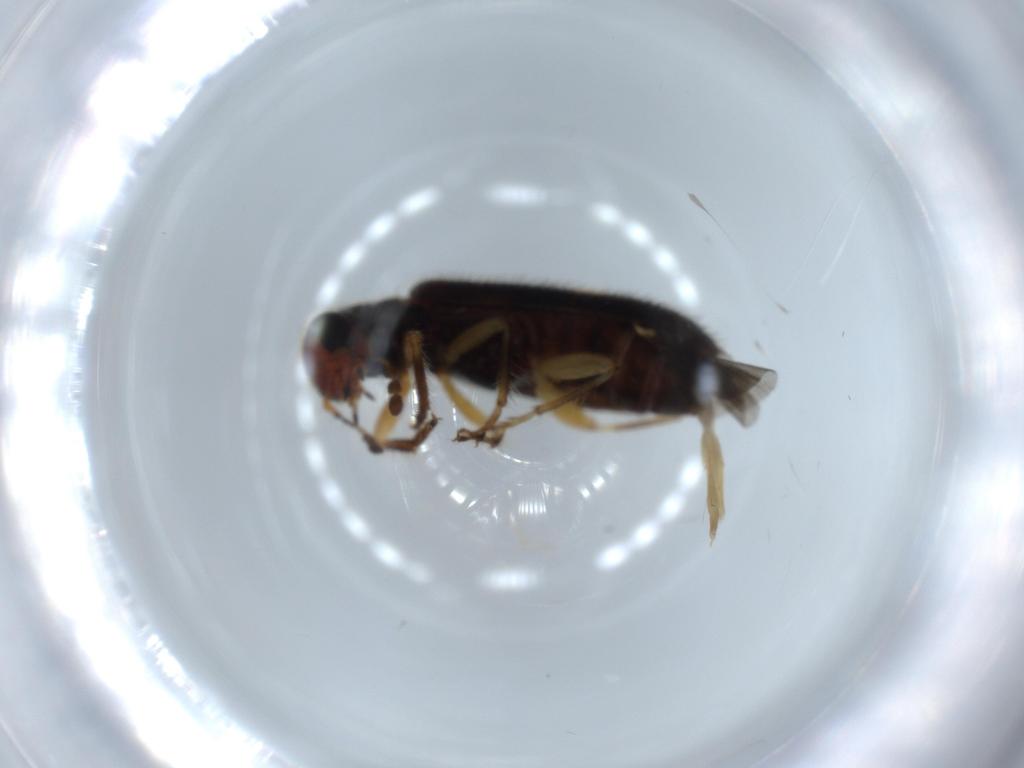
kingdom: Animalia
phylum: Arthropoda
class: Insecta
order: Coleoptera
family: Cleridae
